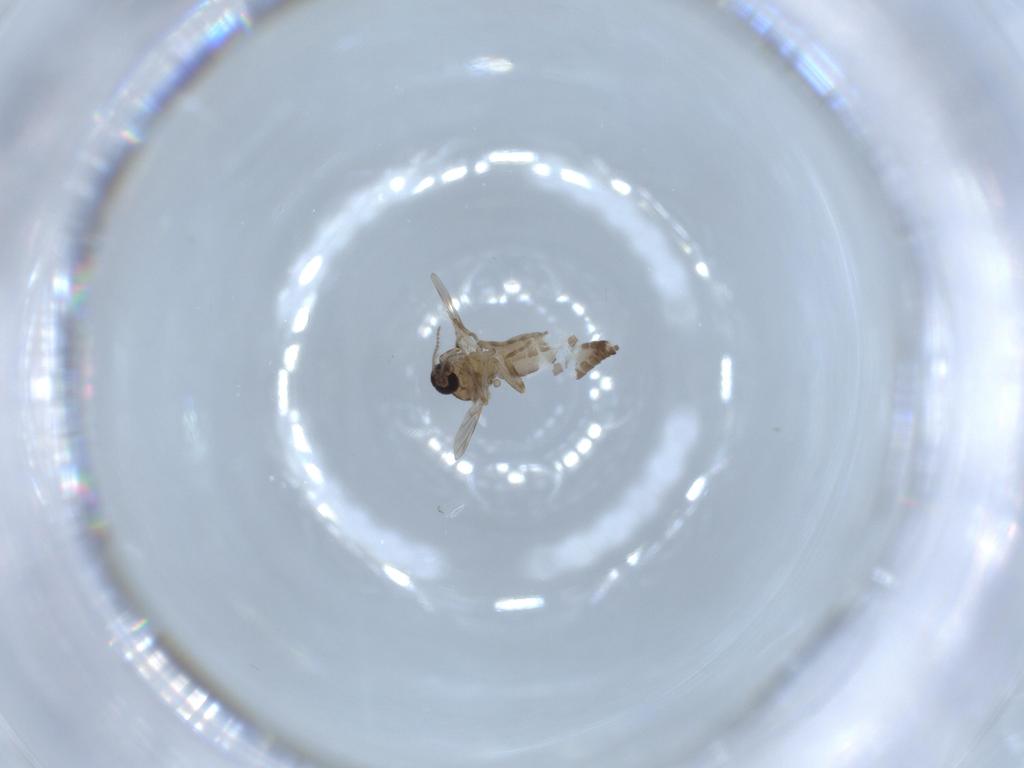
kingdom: Animalia
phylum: Arthropoda
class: Insecta
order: Diptera
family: Ceratopogonidae
